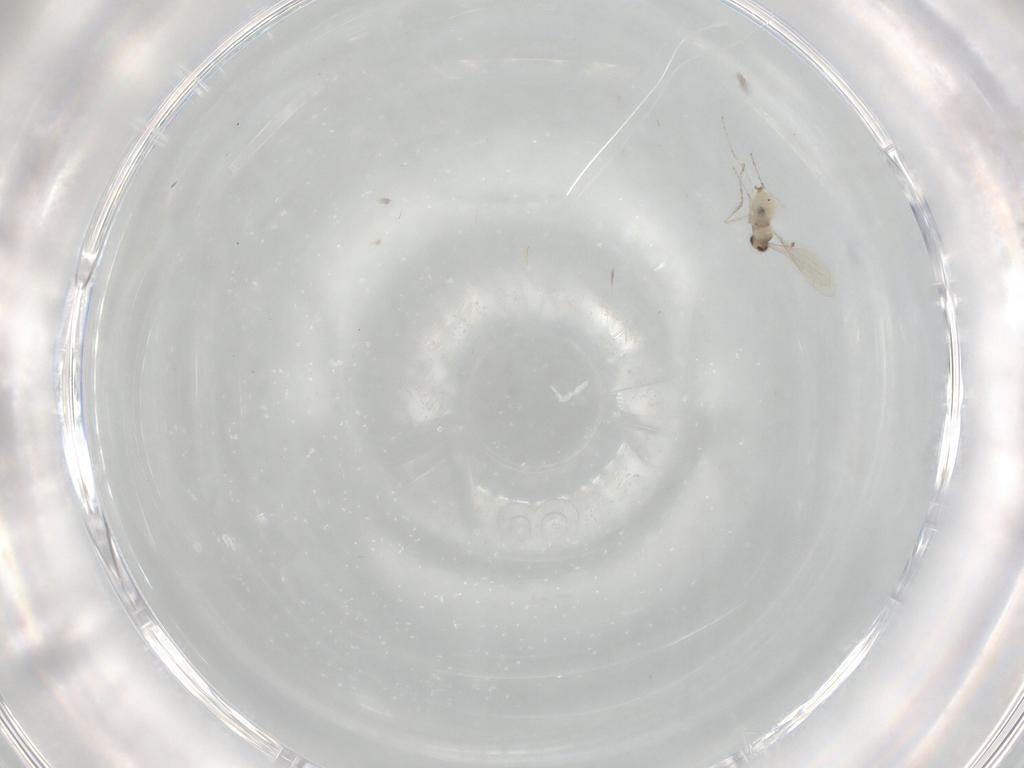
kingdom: Animalia
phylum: Arthropoda
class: Insecta
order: Diptera
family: Cecidomyiidae
